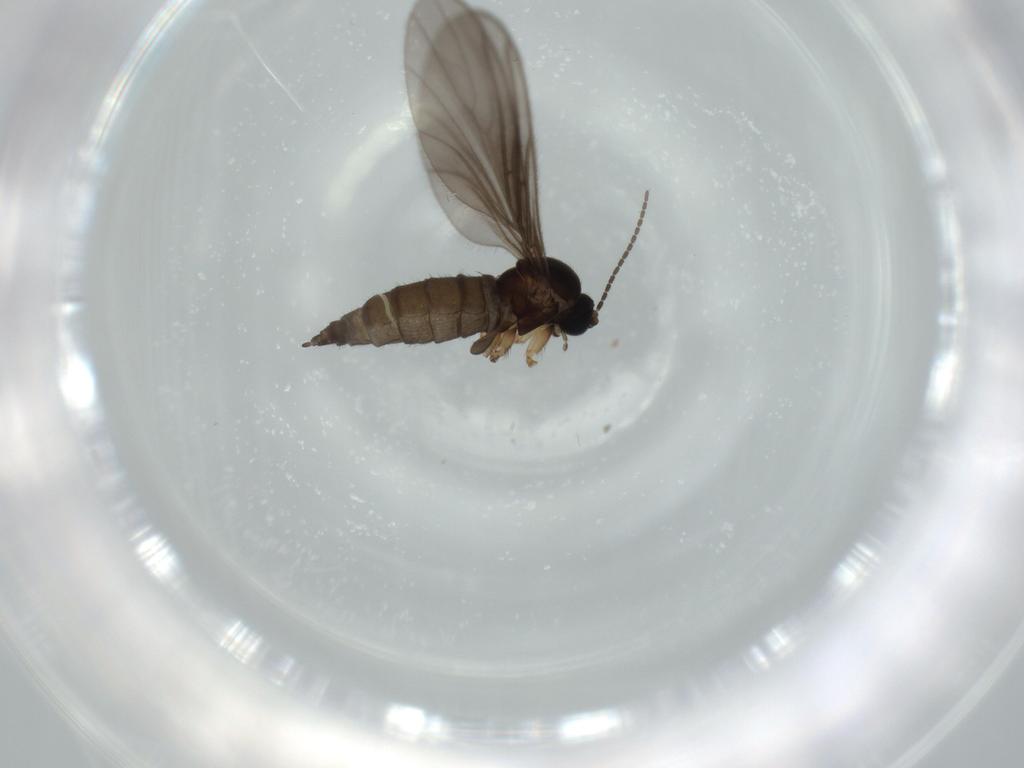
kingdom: Animalia
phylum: Arthropoda
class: Insecta
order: Diptera
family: Sciaridae
